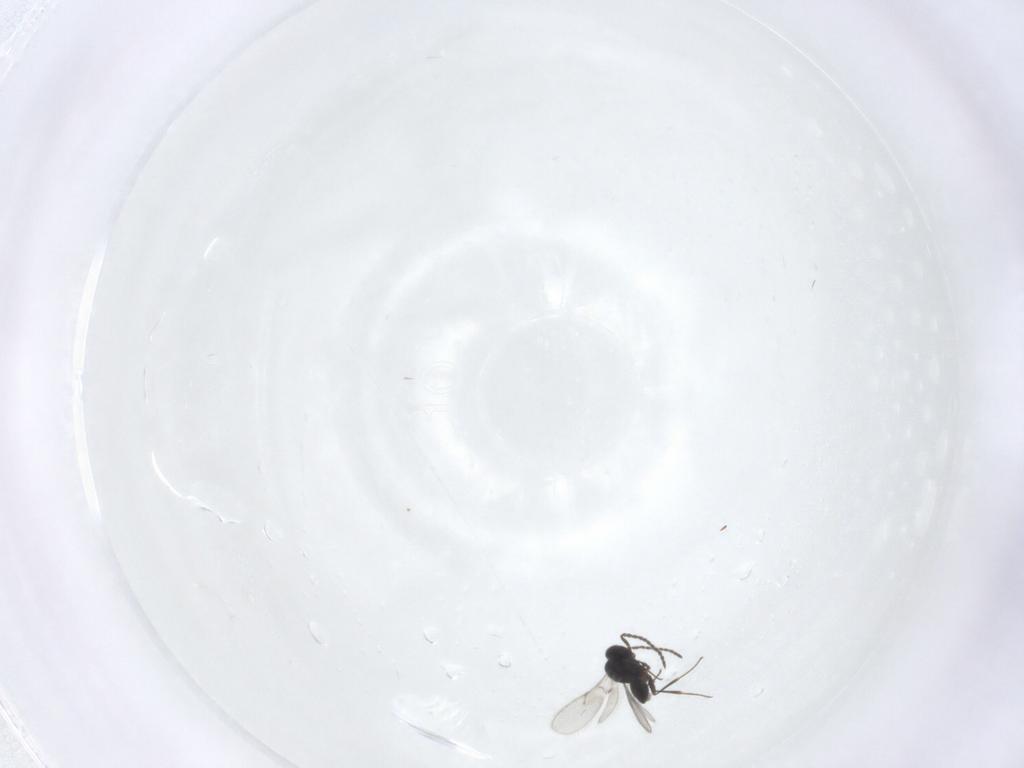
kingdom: Animalia
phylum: Arthropoda
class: Insecta
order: Hymenoptera
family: Scelionidae
